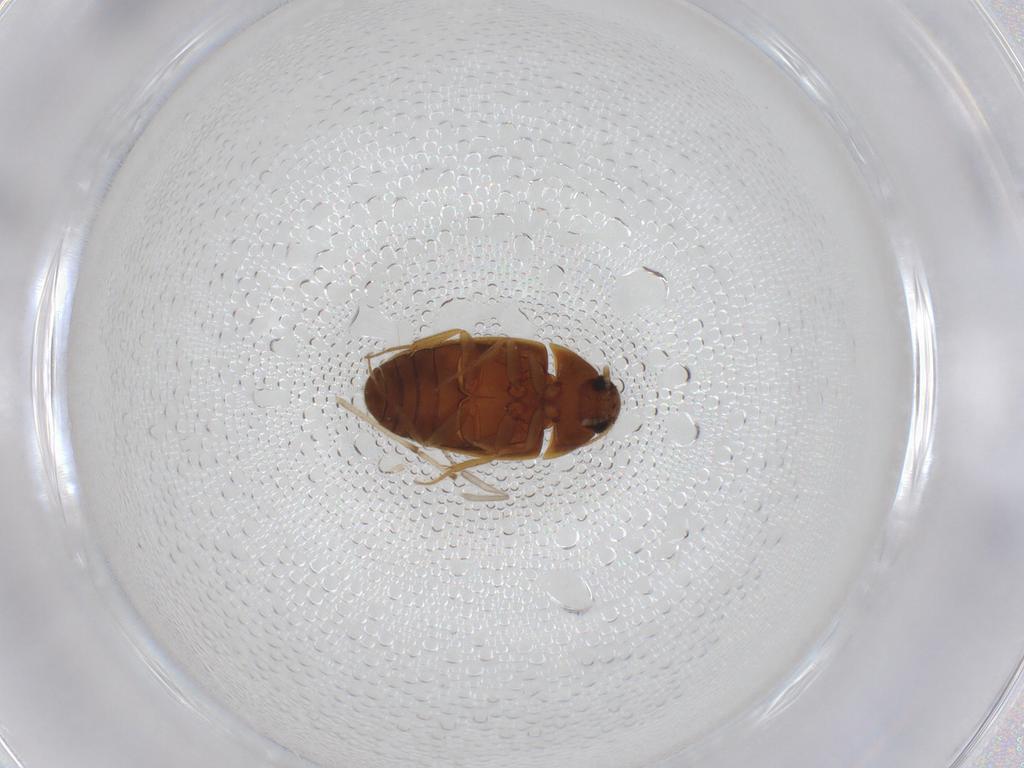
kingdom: Animalia
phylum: Arthropoda
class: Insecta
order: Coleoptera
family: Mycetophagidae
